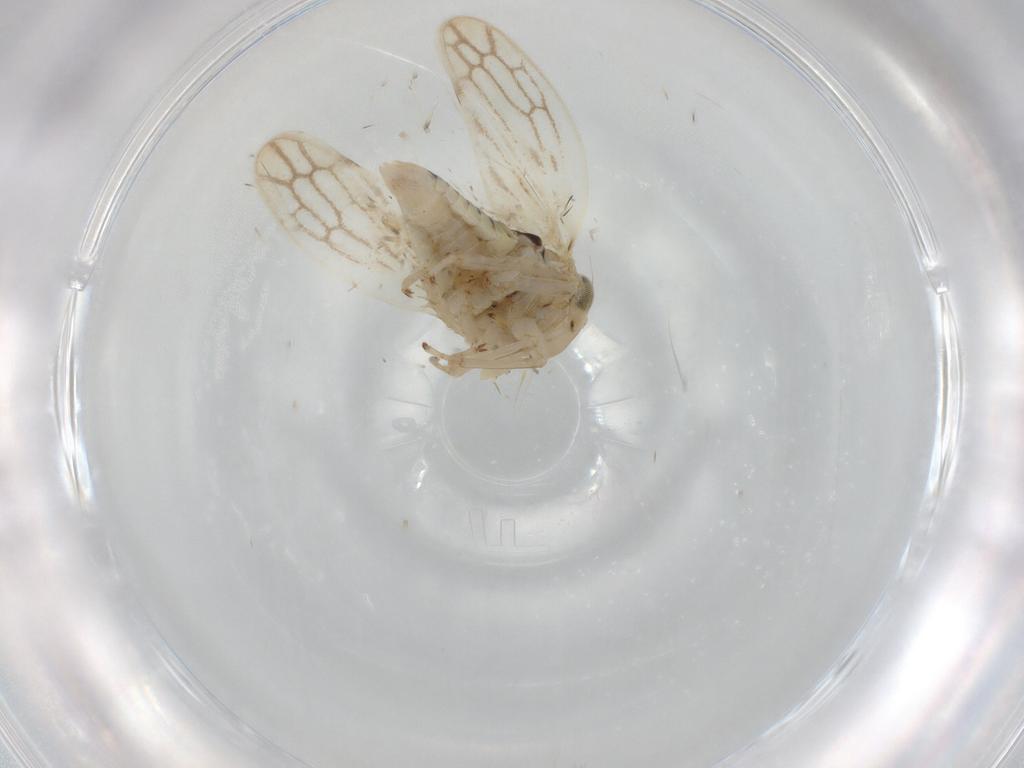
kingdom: Animalia
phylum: Arthropoda
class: Insecta
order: Hemiptera
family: Cicadellidae
